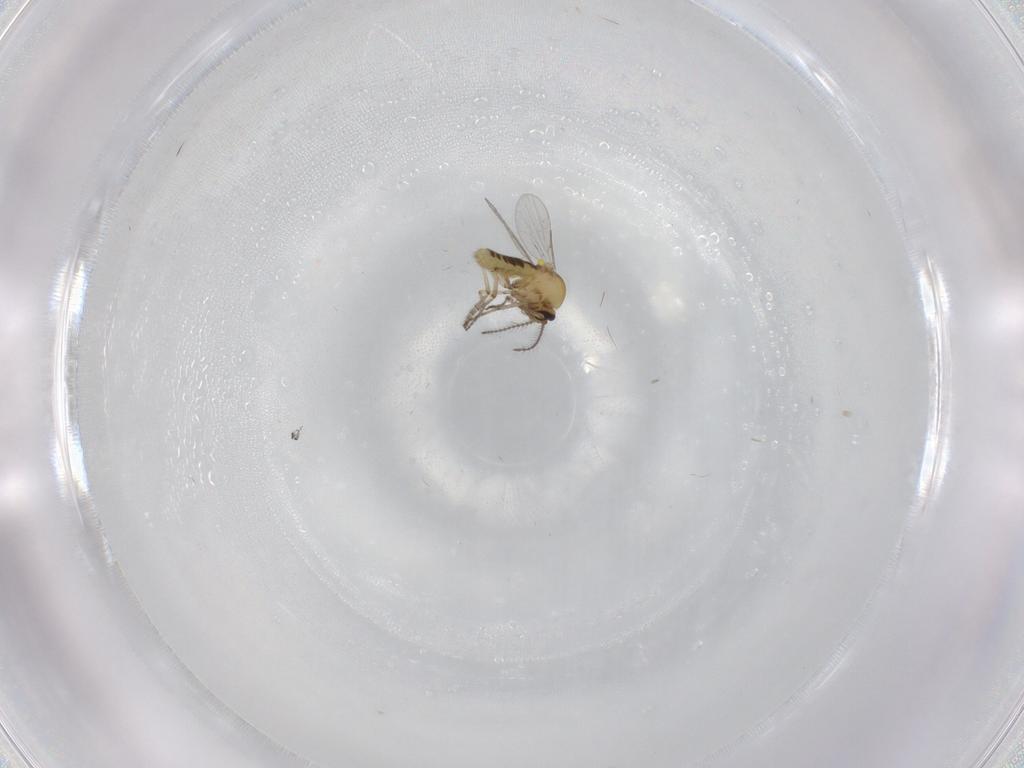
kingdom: Animalia
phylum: Arthropoda
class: Insecta
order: Diptera
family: Ceratopogonidae
